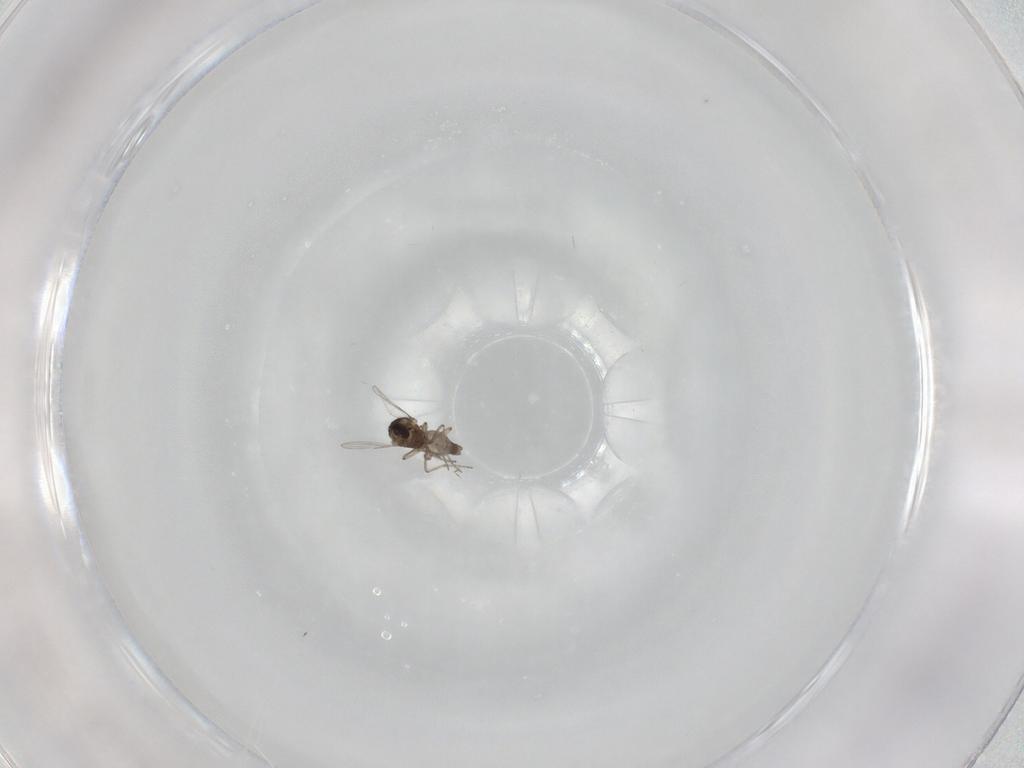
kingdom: Animalia
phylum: Arthropoda
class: Insecta
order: Diptera
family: Ceratopogonidae
